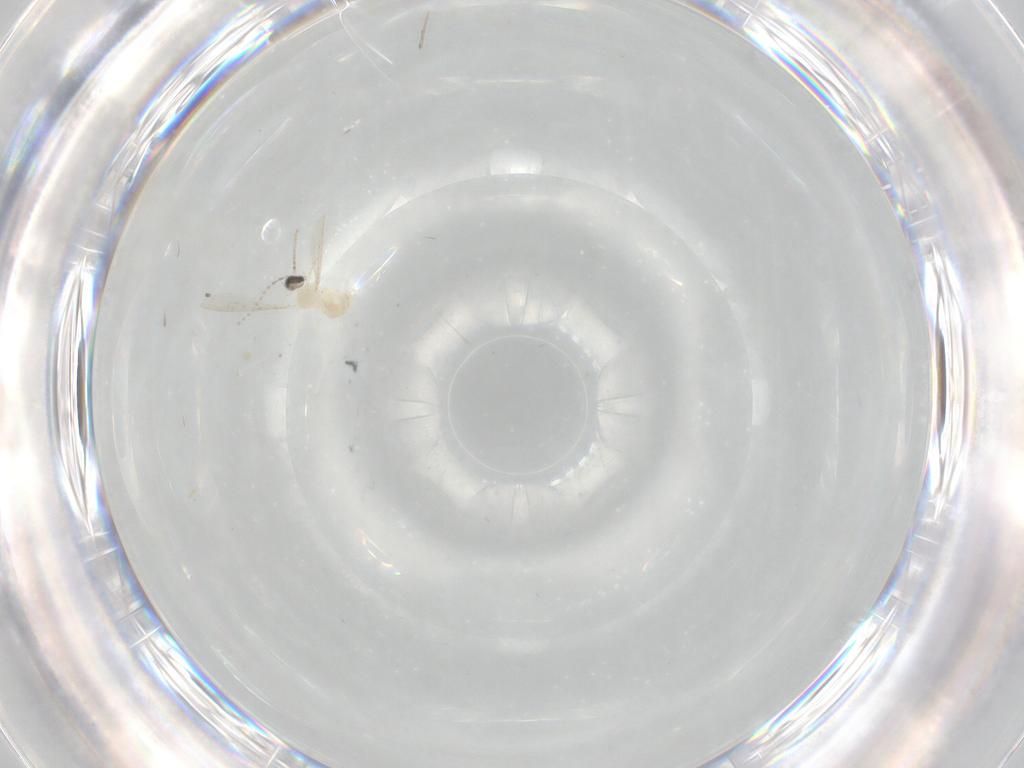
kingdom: Animalia
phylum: Arthropoda
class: Insecta
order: Diptera
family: Cecidomyiidae
